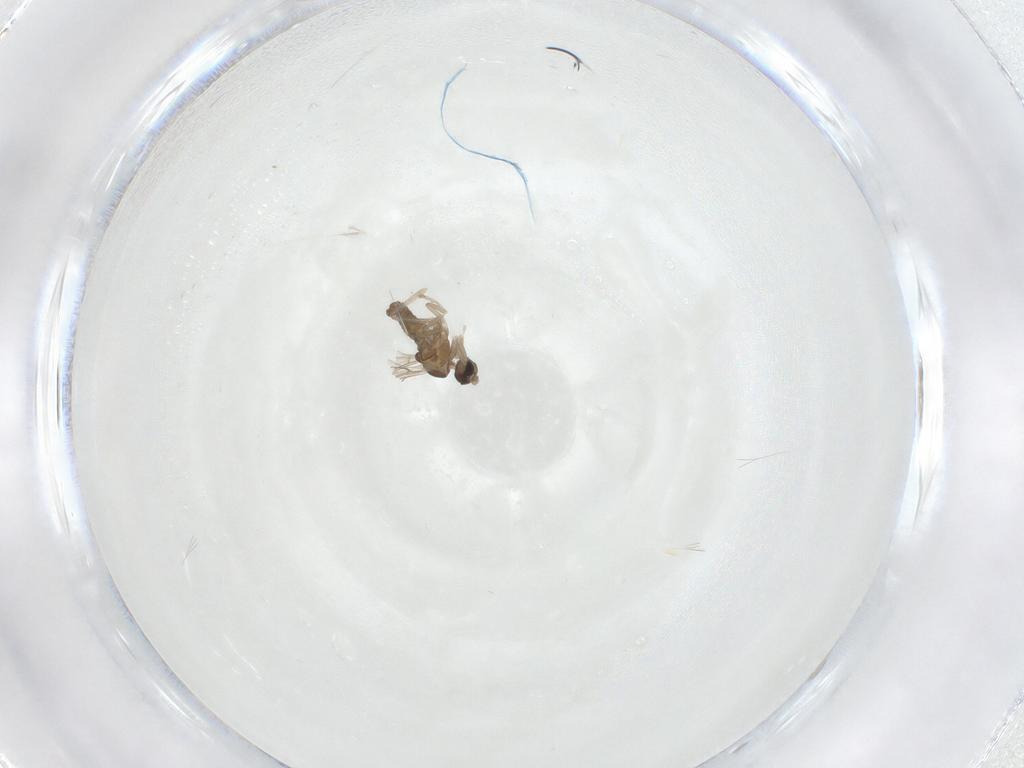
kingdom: Animalia
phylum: Arthropoda
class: Insecta
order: Diptera
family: Cecidomyiidae
